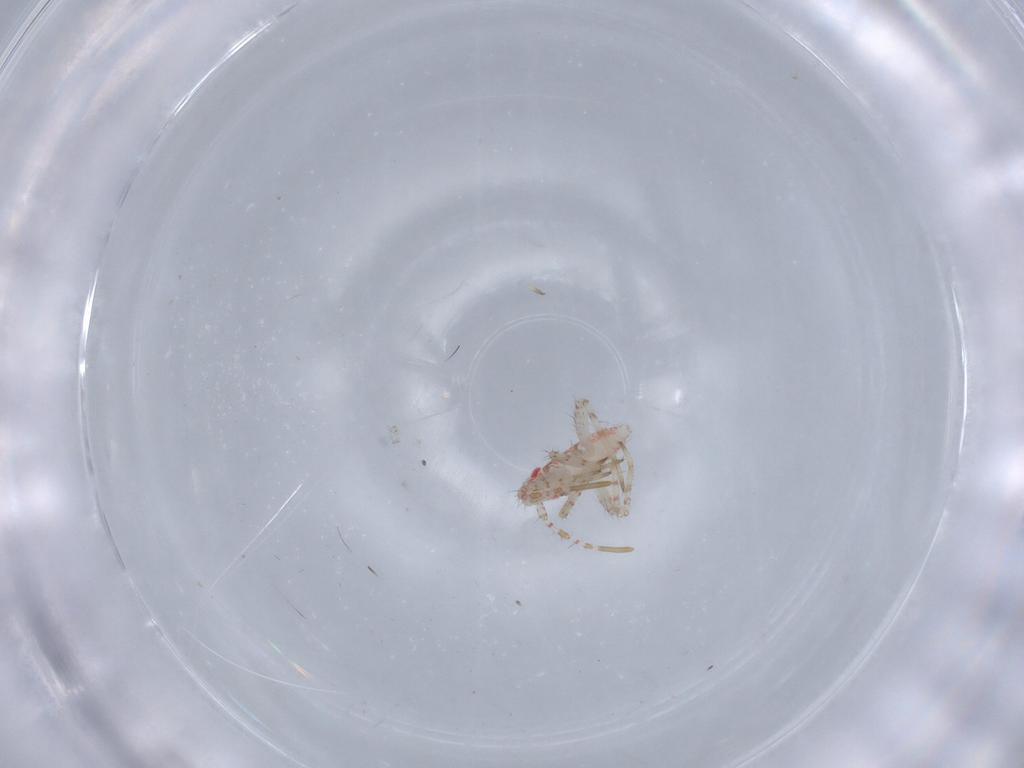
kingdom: Animalia
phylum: Arthropoda
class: Insecta
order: Hemiptera
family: Miridae
